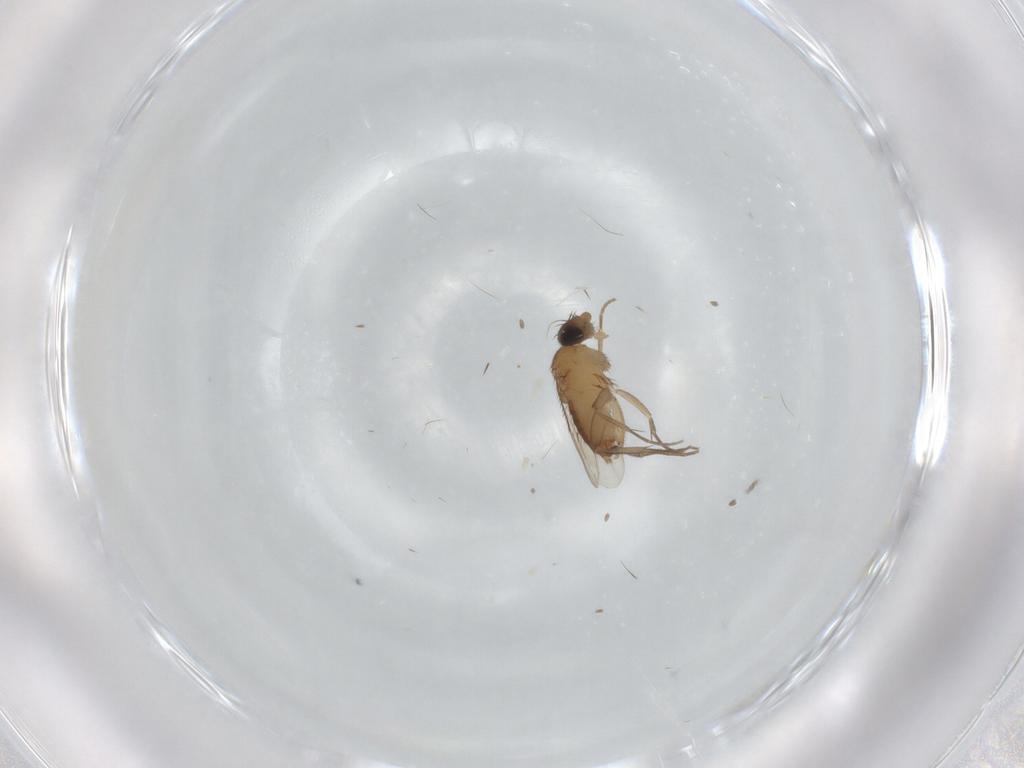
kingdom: Animalia
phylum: Arthropoda
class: Insecta
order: Diptera
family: Phoridae
